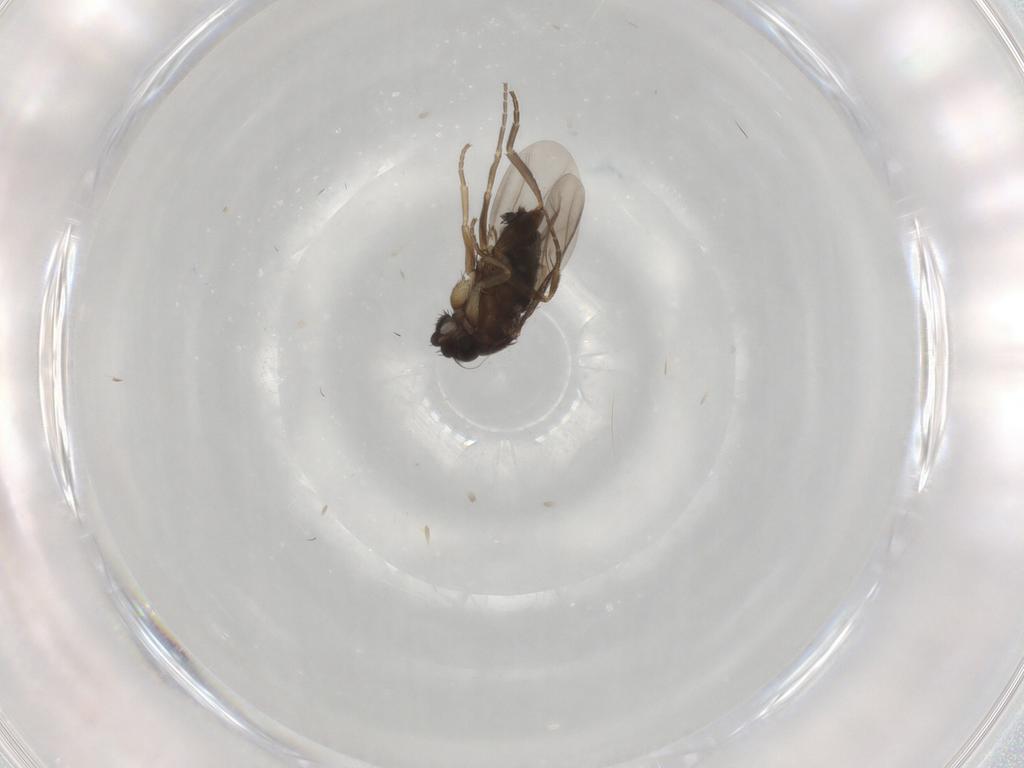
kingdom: Animalia
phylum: Arthropoda
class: Insecta
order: Diptera
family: Phoridae
